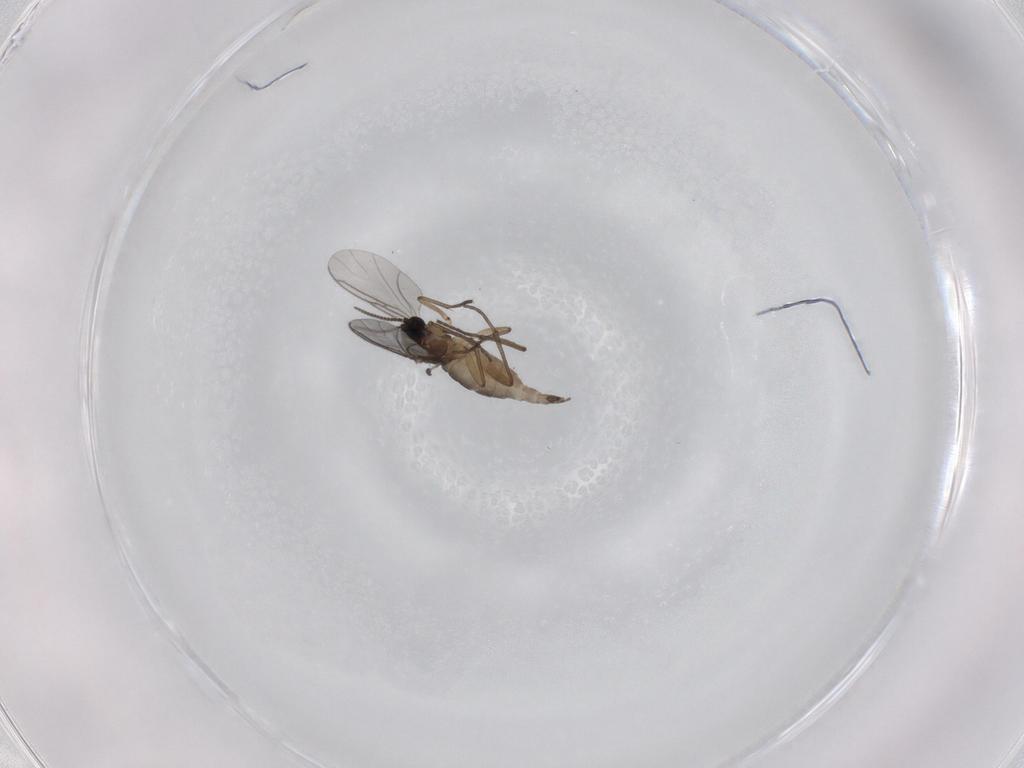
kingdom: Animalia
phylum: Arthropoda
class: Insecta
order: Diptera
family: Sciaridae
